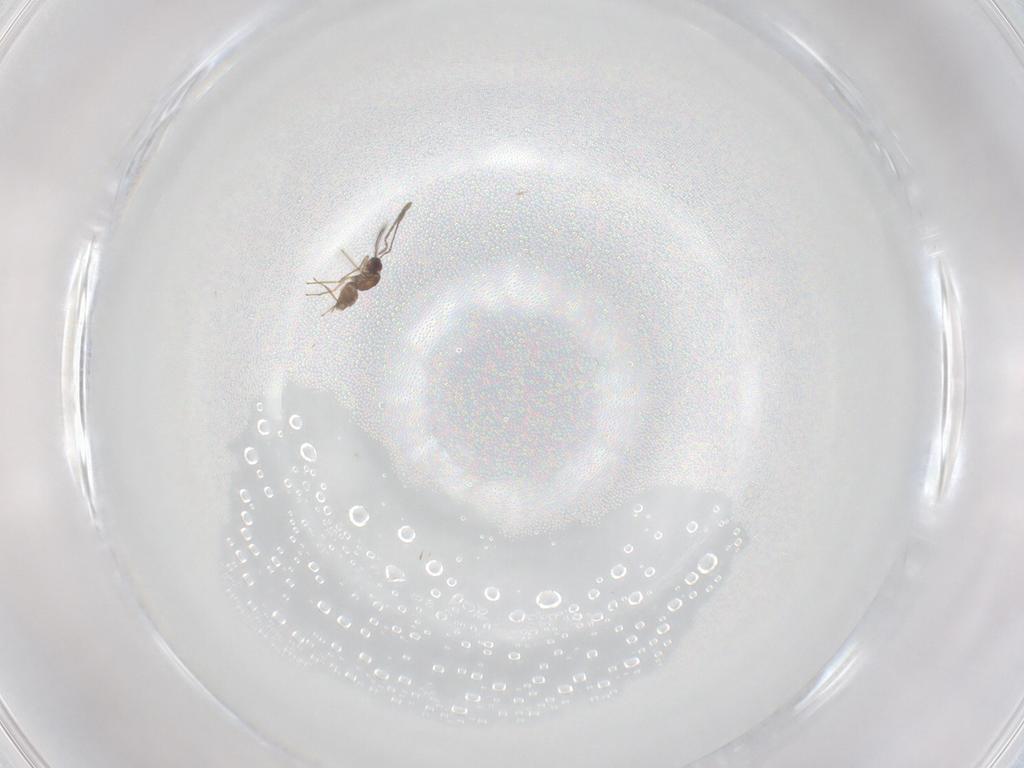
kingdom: Animalia
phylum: Arthropoda
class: Insecta
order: Hymenoptera
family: Mymaridae
